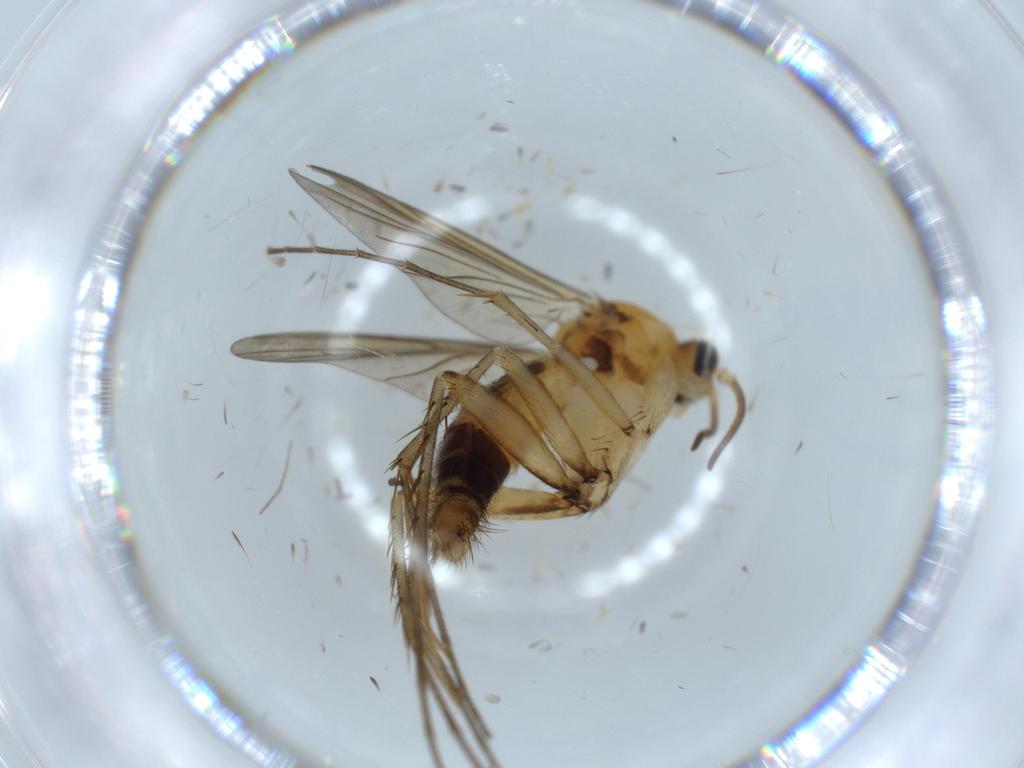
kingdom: Animalia
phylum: Arthropoda
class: Insecta
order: Diptera
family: Mycetophilidae
